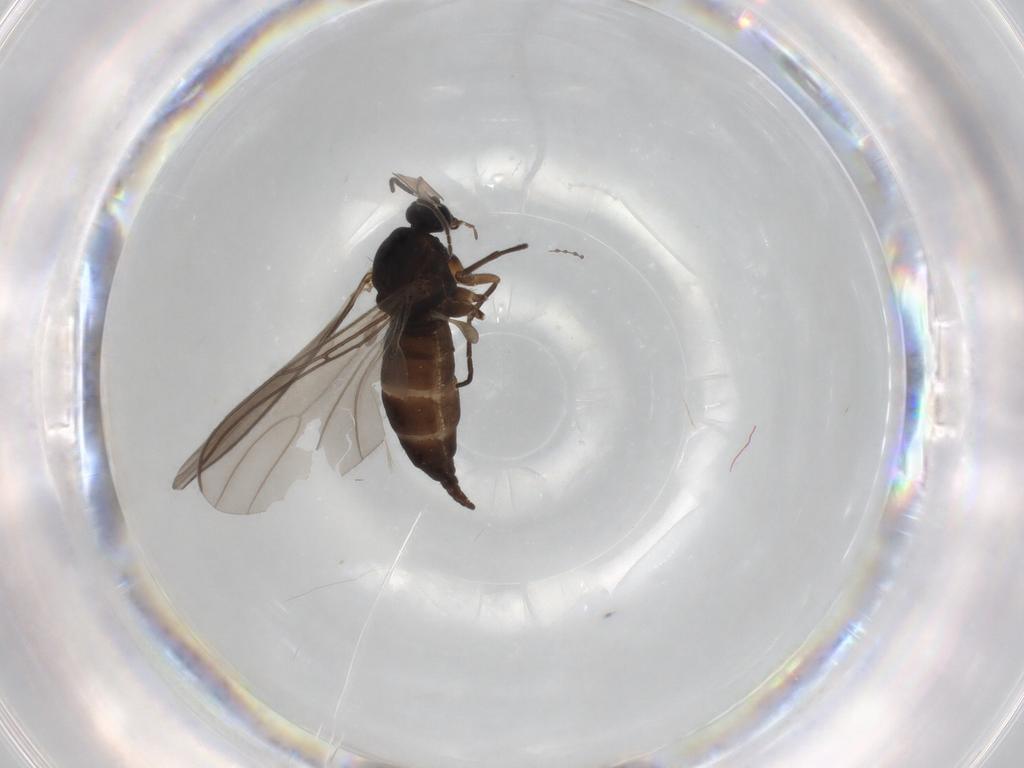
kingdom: Animalia
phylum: Arthropoda
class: Insecta
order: Diptera
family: Sciaridae
